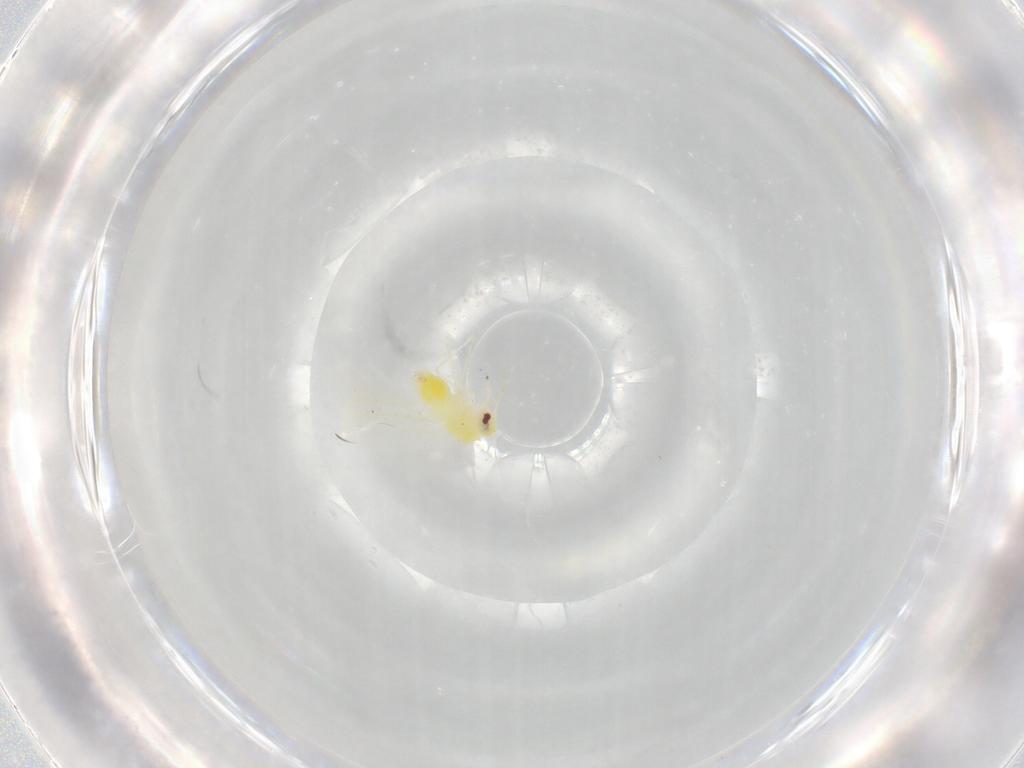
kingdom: Animalia
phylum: Arthropoda
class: Insecta
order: Hemiptera
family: Aleyrodidae
